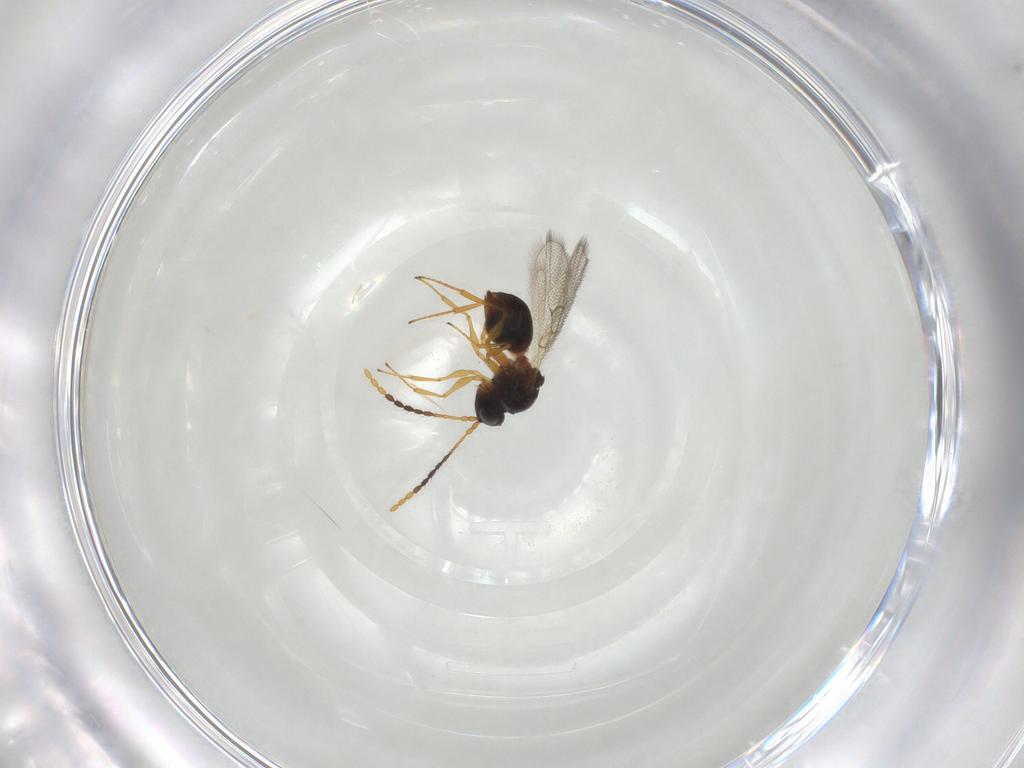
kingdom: Animalia
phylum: Arthropoda
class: Insecta
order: Hymenoptera
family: Figitidae
